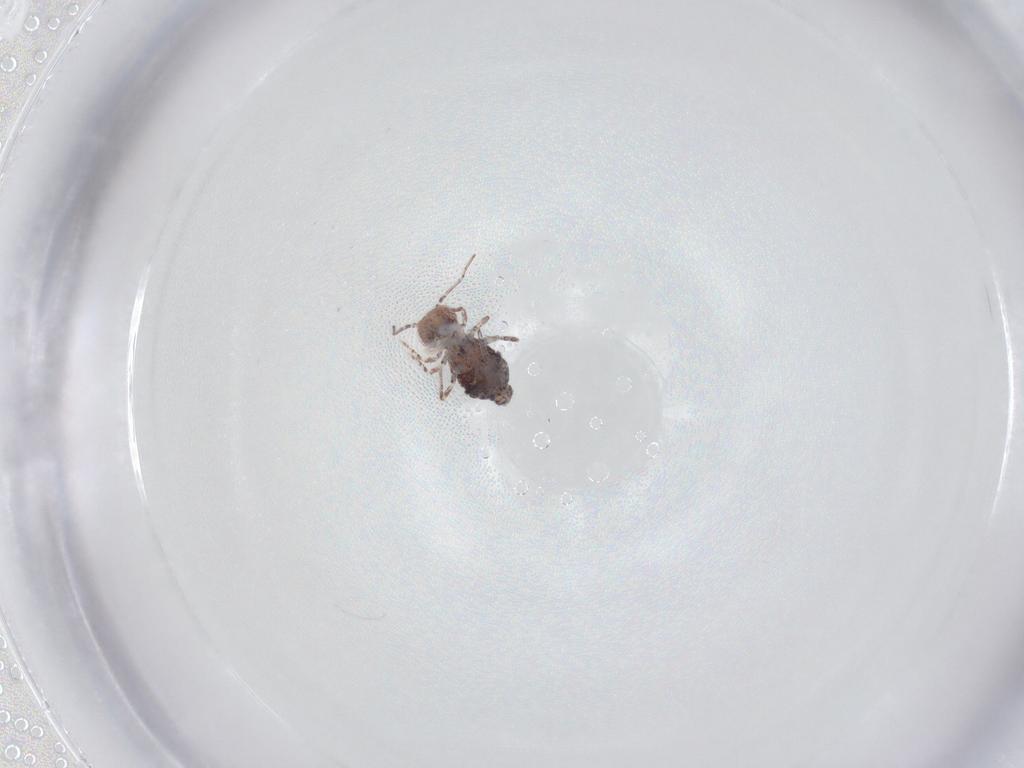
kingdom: Animalia
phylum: Arthropoda
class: Collembola
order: Symphypleona
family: Bourletiellidae
